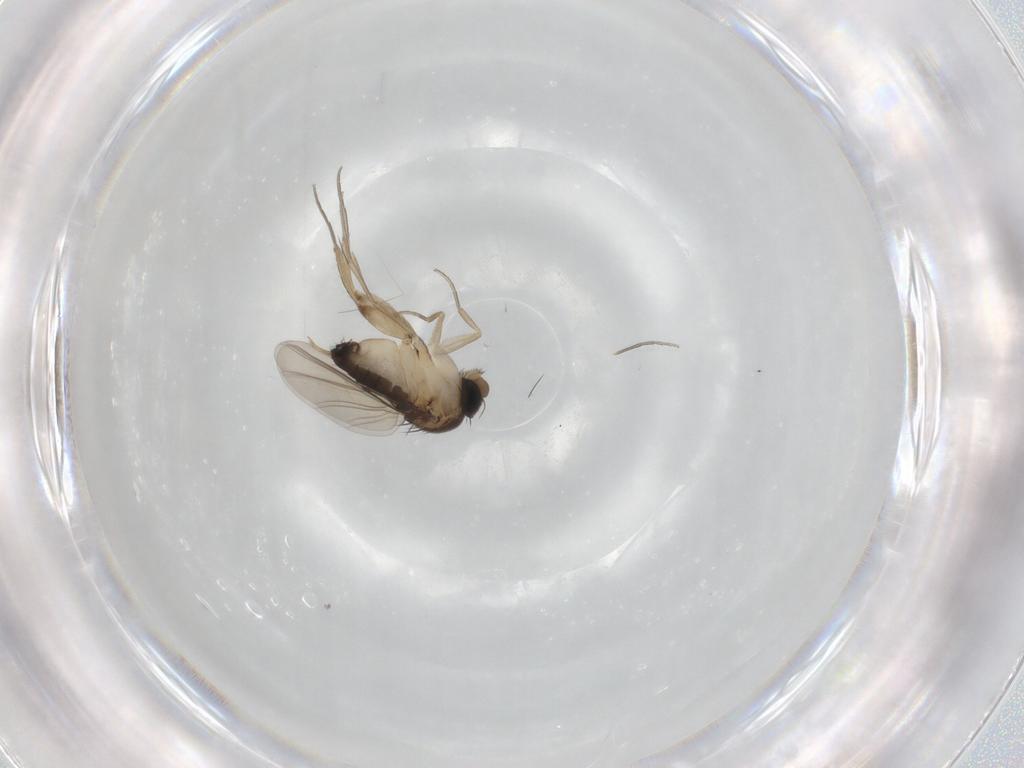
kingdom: Animalia
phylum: Arthropoda
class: Insecta
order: Diptera
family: Phoridae
